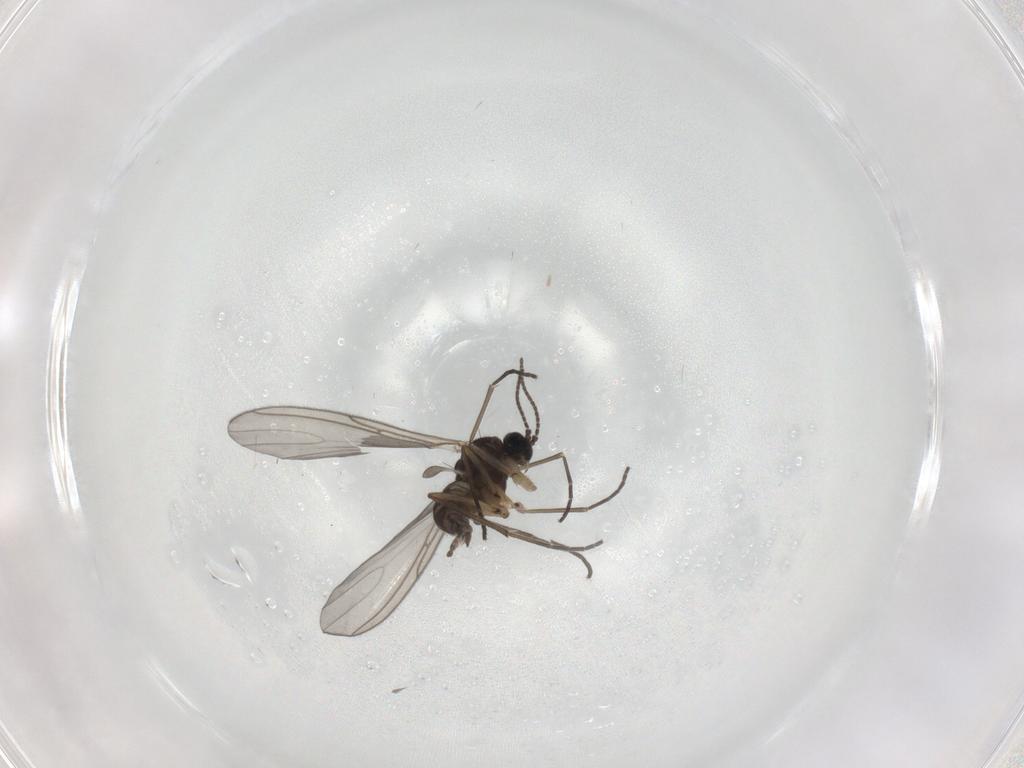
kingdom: Animalia
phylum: Arthropoda
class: Insecta
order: Diptera
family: Sciaridae
